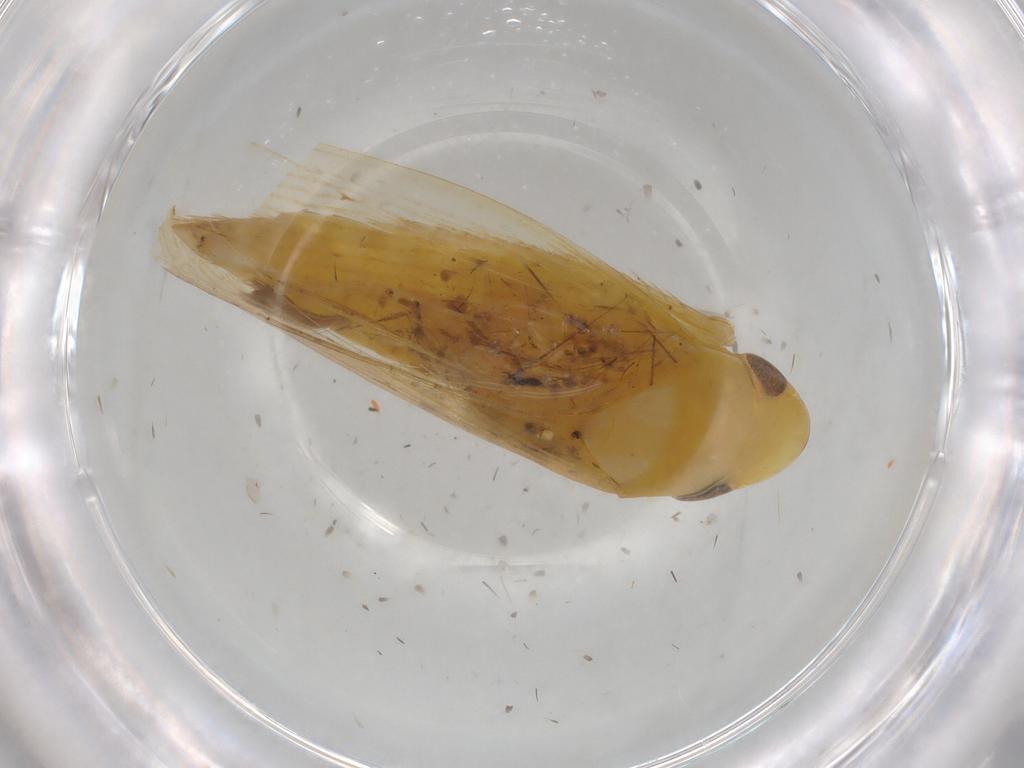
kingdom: Animalia
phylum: Arthropoda
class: Insecta
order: Hemiptera
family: Cicadellidae
